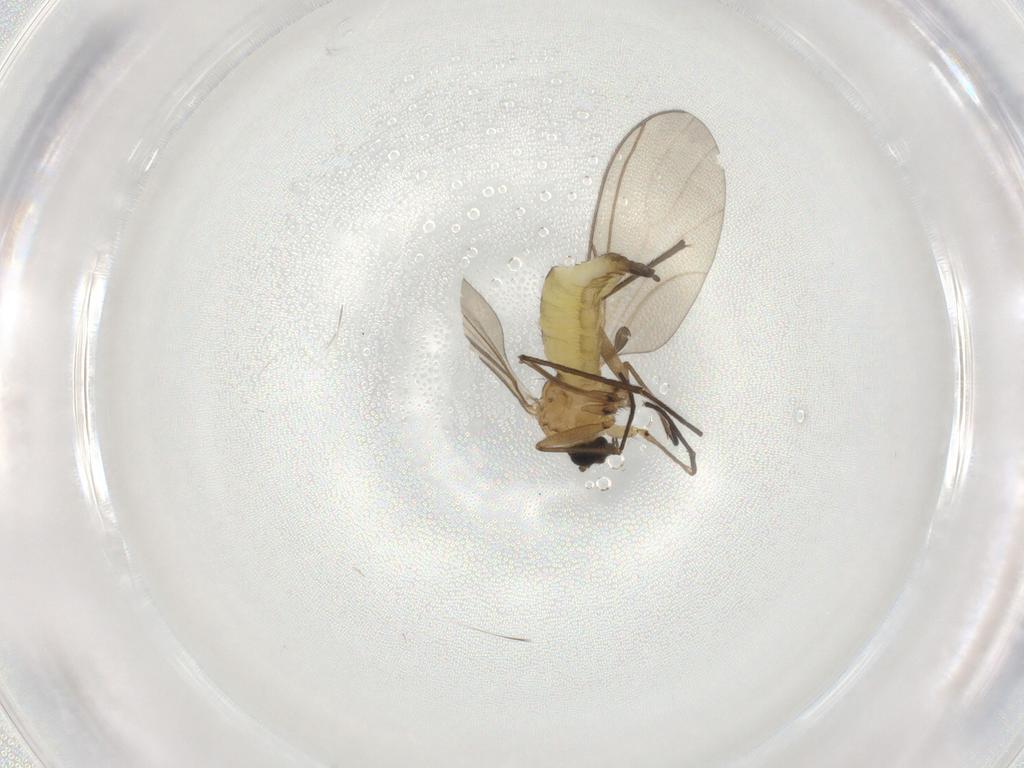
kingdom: Animalia
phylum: Arthropoda
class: Insecta
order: Diptera
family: Sciaridae
